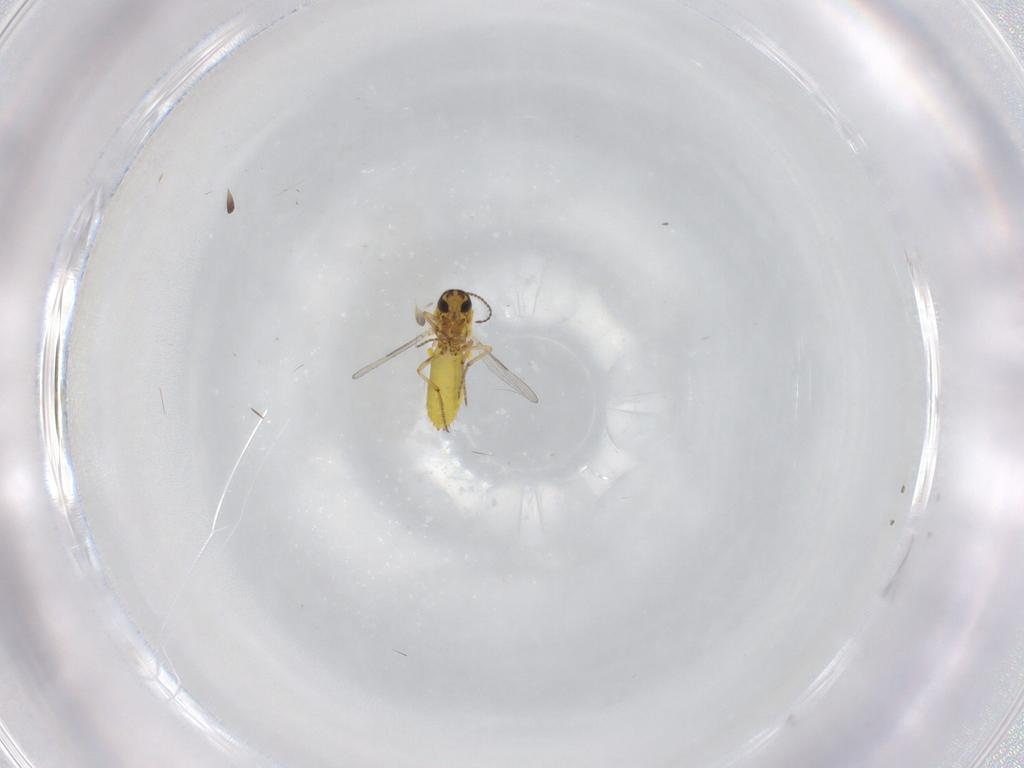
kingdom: Animalia
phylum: Arthropoda
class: Insecta
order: Diptera
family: Ceratopogonidae
